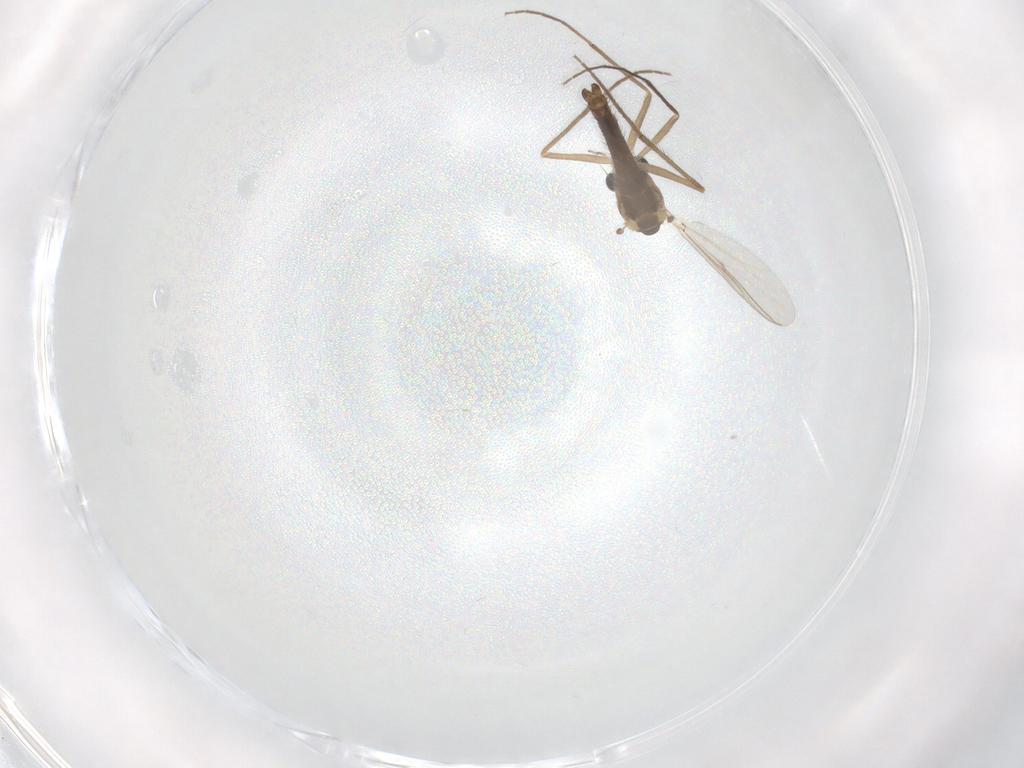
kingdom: Animalia
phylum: Arthropoda
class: Insecta
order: Diptera
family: Chironomidae
